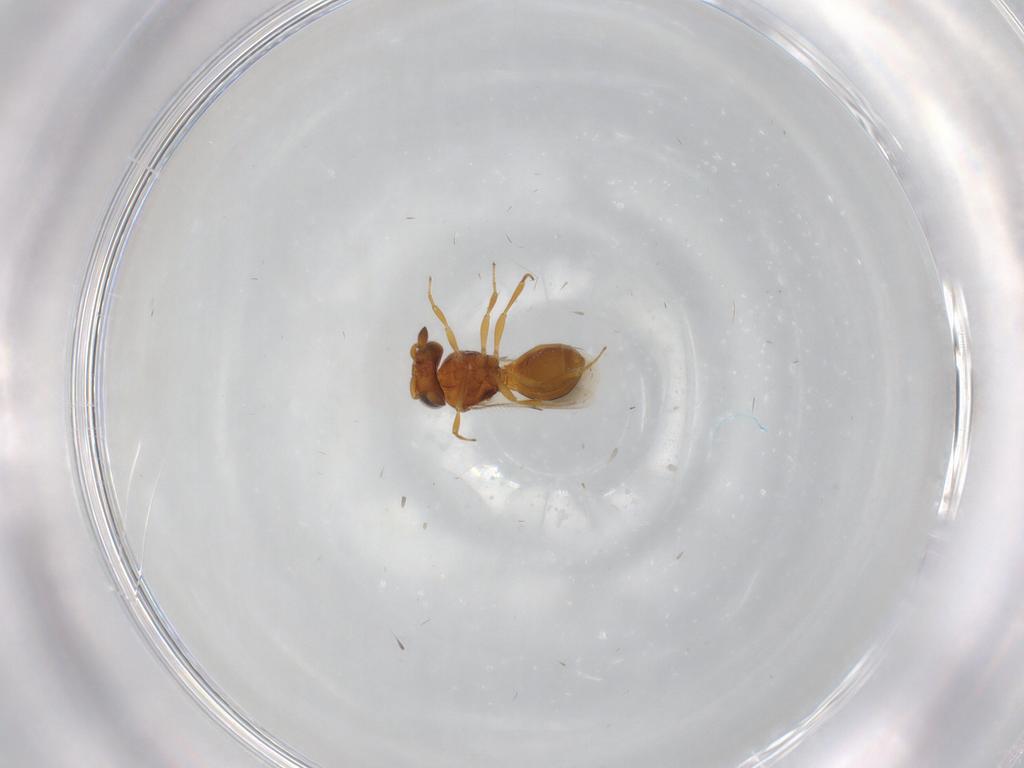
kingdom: Animalia
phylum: Arthropoda
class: Insecta
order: Hymenoptera
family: Scelionidae
